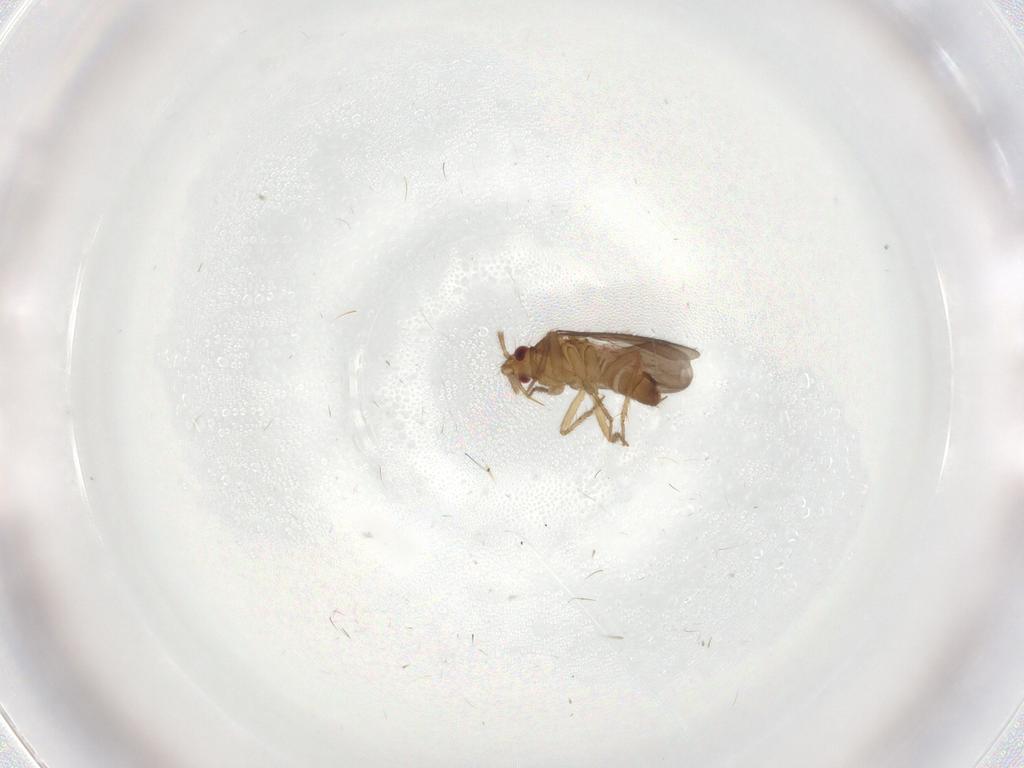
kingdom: Animalia
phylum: Arthropoda
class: Insecta
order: Hemiptera
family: Ceratocombidae
